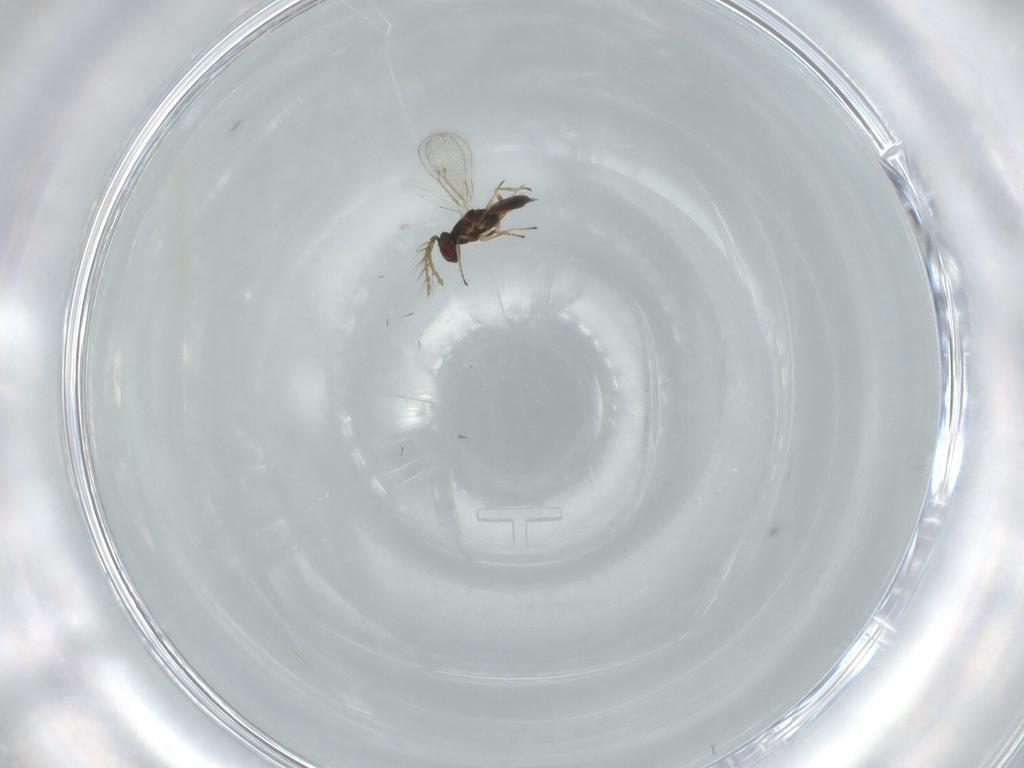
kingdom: Animalia
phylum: Arthropoda
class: Insecta
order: Hymenoptera
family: Eulophidae
